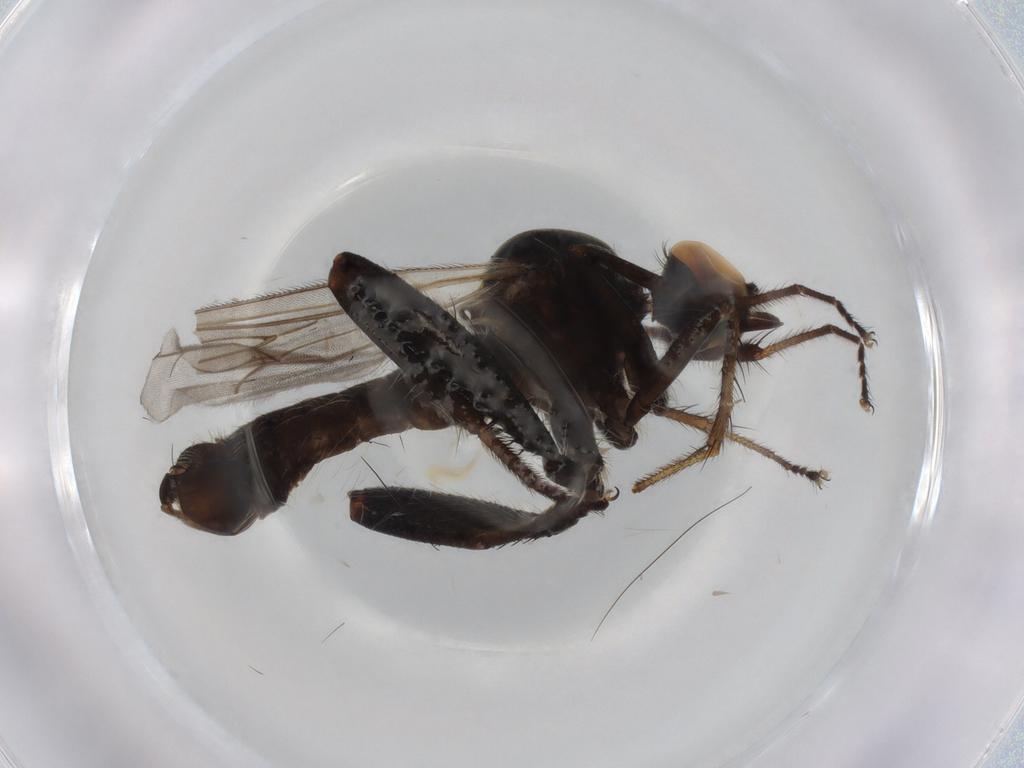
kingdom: Animalia
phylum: Arthropoda
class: Insecta
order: Diptera
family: Hybotidae
